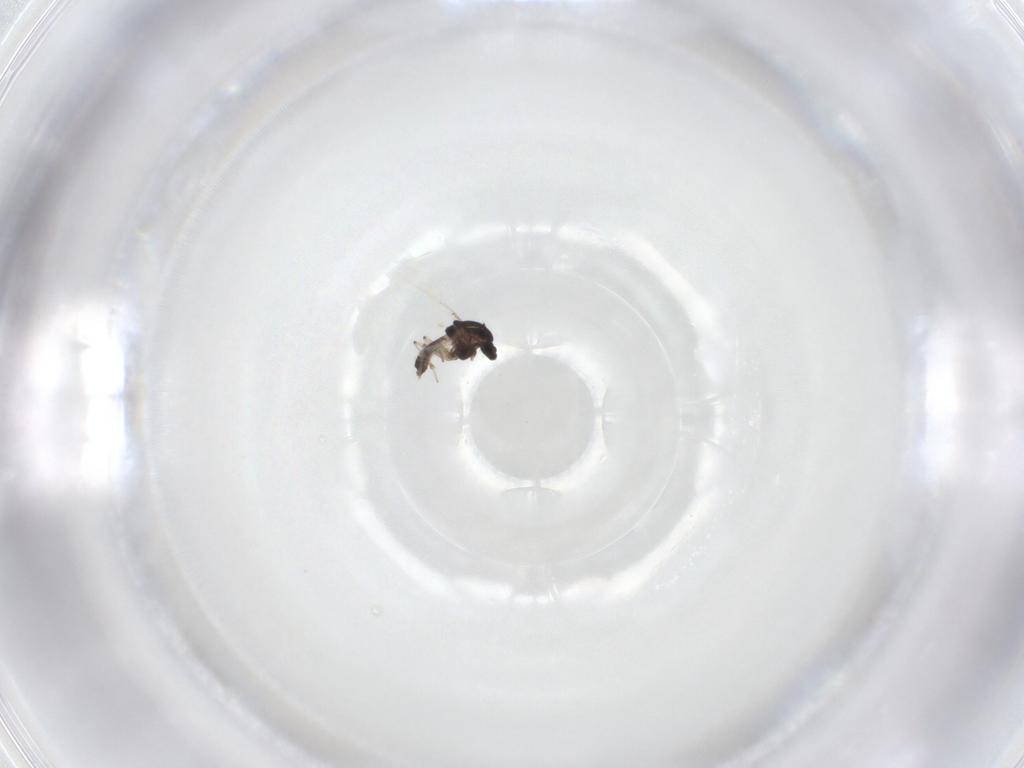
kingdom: Animalia
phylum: Arthropoda
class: Insecta
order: Diptera
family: Chironomidae
